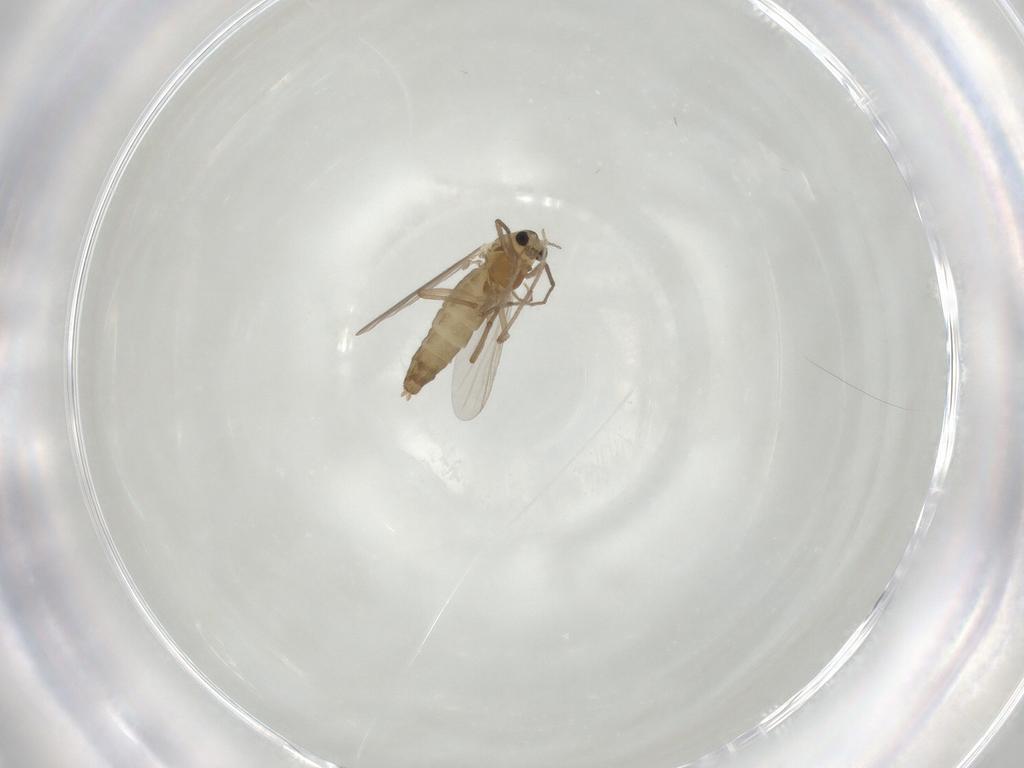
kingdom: Animalia
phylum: Arthropoda
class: Insecta
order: Diptera
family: Chironomidae
